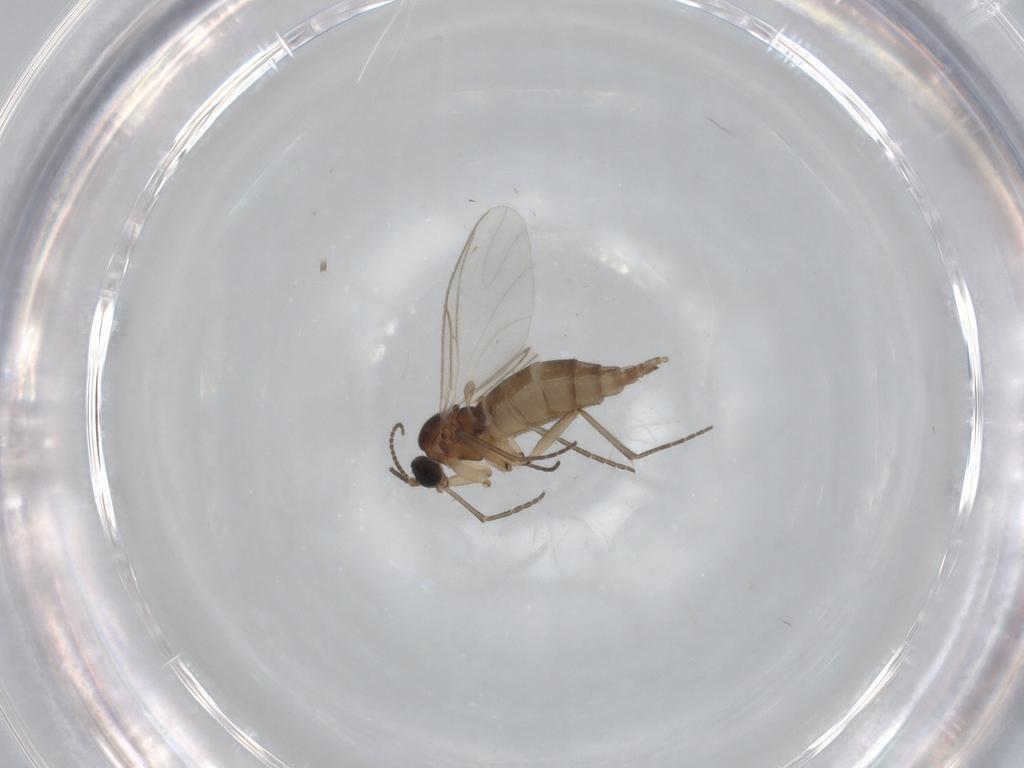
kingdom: Animalia
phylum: Arthropoda
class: Insecta
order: Diptera
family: Sciaridae
